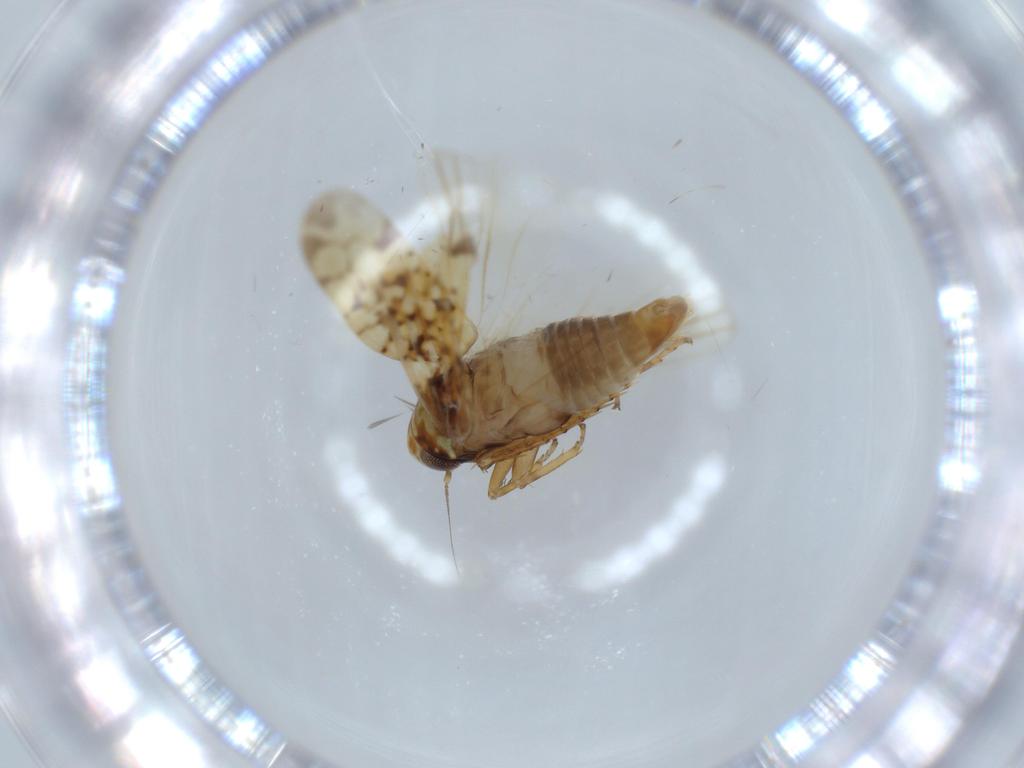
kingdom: Animalia
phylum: Arthropoda
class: Insecta
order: Hemiptera
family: Cicadellidae
